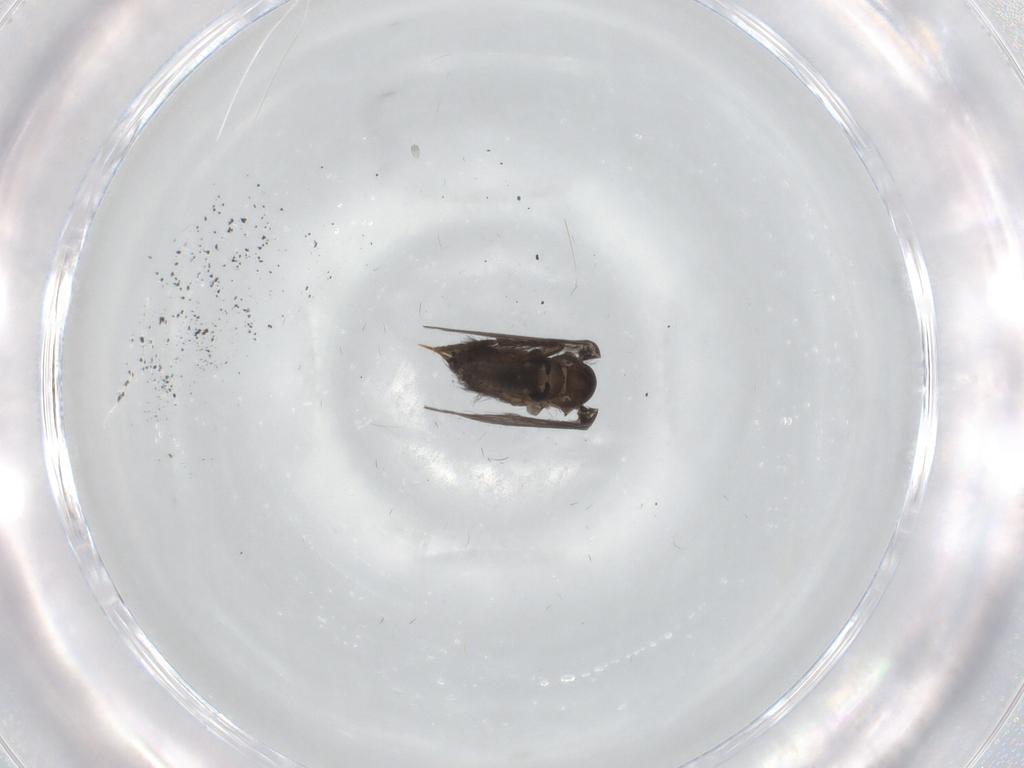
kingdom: Animalia
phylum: Arthropoda
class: Insecta
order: Diptera
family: Psychodidae
